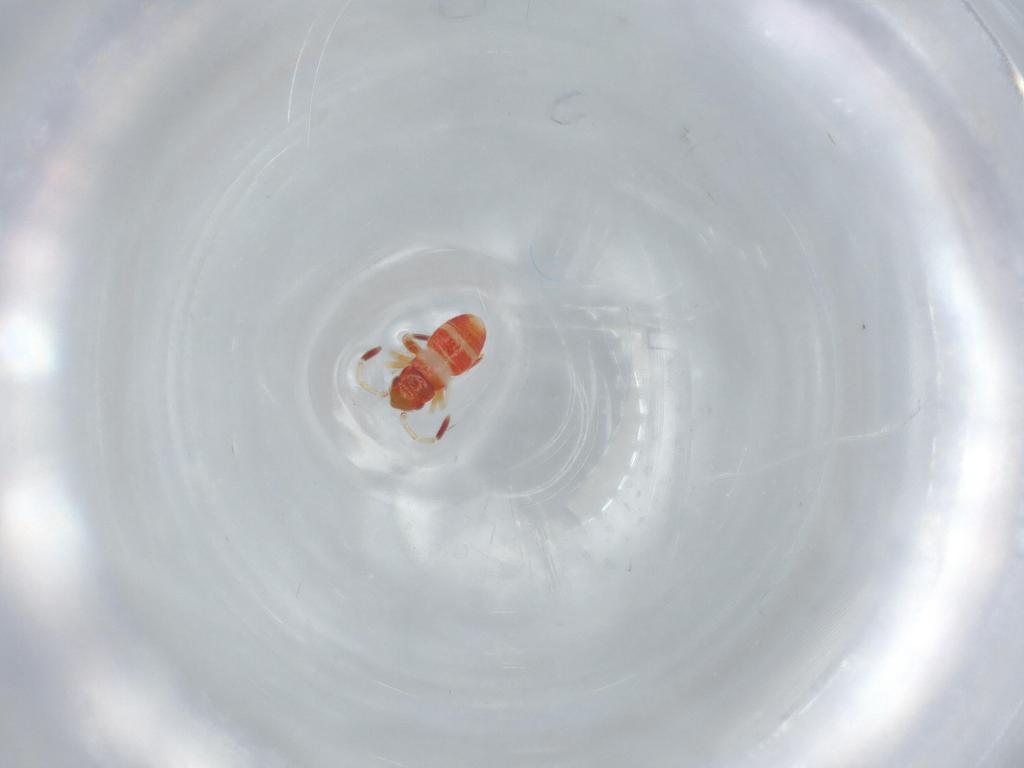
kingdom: Animalia
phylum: Arthropoda
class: Insecta
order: Hemiptera
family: Miridae
